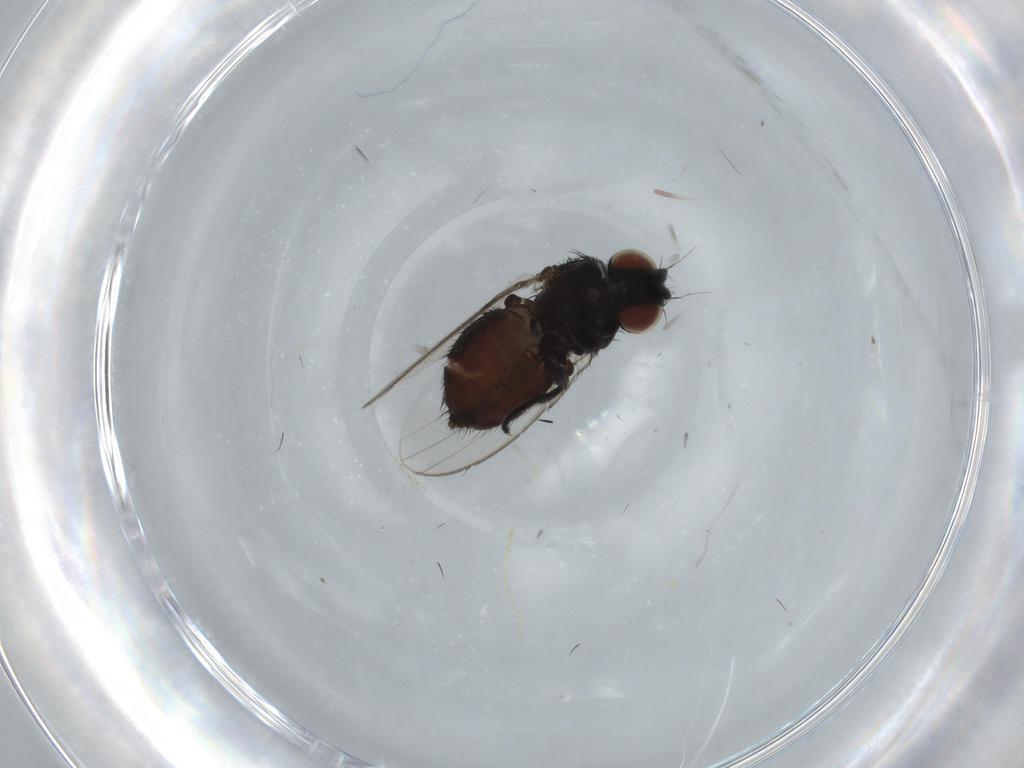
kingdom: Animalia
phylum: Arthropoda
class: Insecta
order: Diptera
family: Milichiidae
